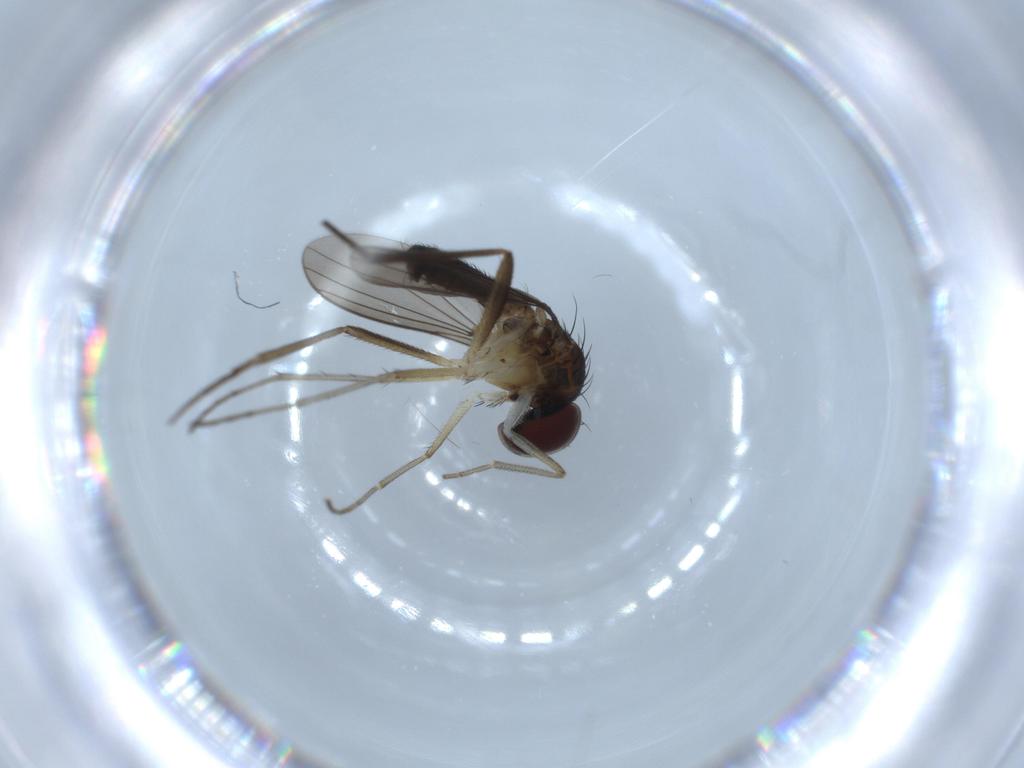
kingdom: Animalia
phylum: Arthropoda
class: Insecta
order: Diptera
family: Dolichopodidae
